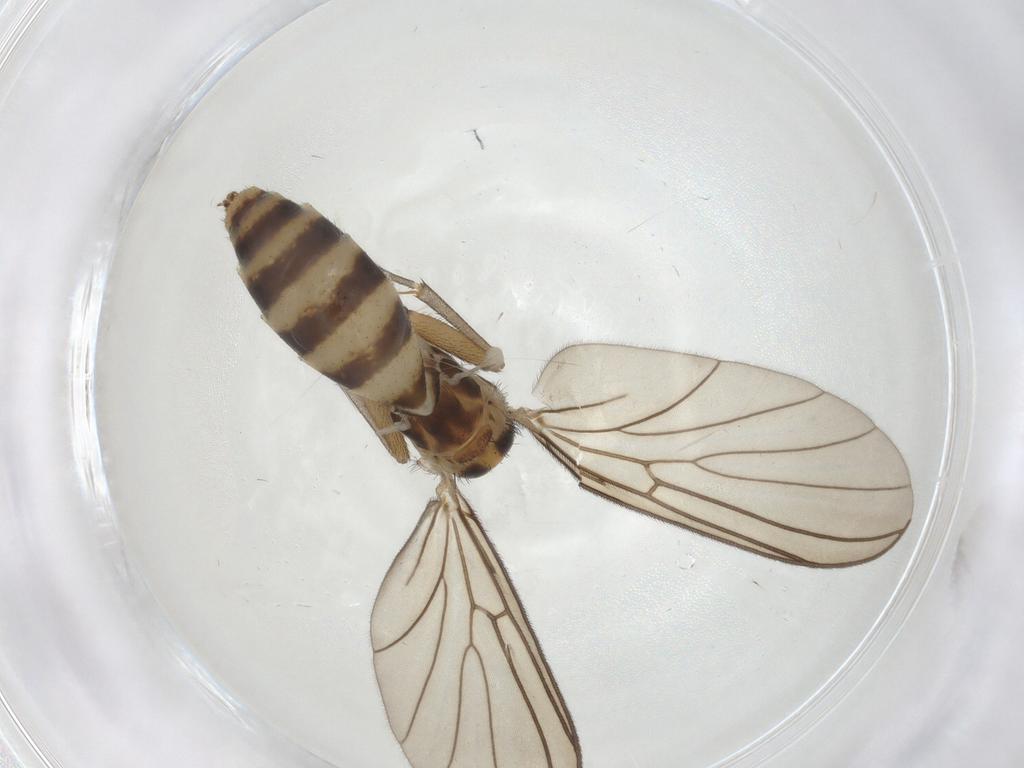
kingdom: Animalia
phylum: Arthropoda
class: Insecta
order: Diptera
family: Mycetophilidae
